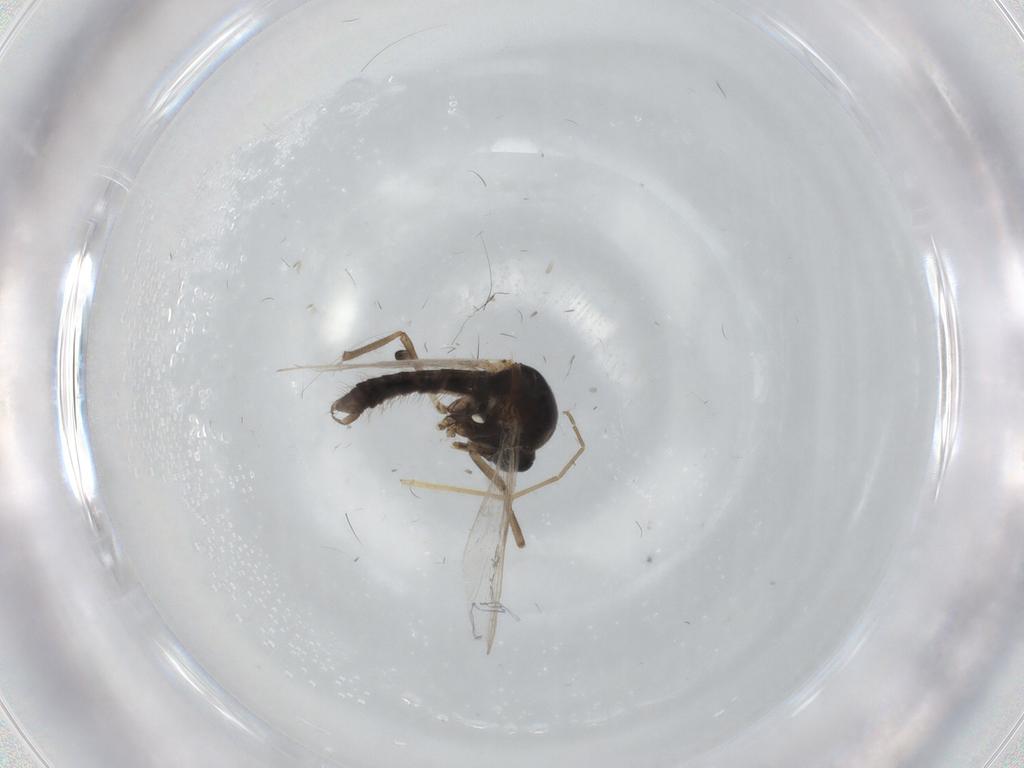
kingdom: Animalia
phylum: Arthropoda
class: Insecta
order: Diptera
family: Ceratopogonidae
